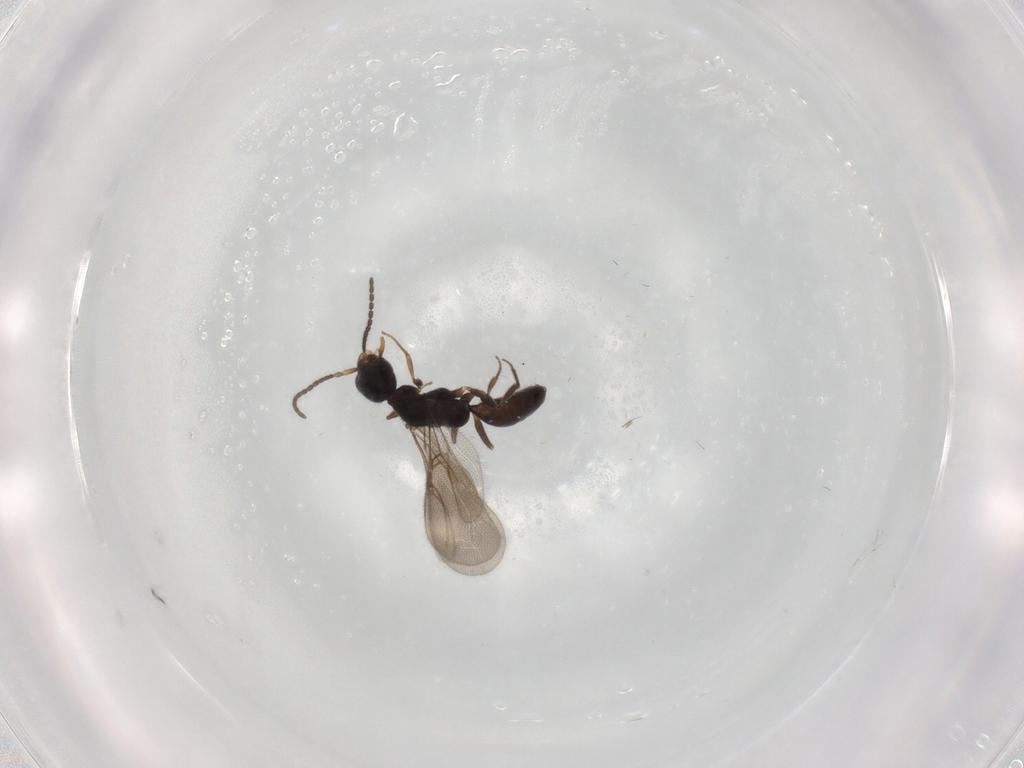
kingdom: Animalia
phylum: Arthropoda
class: Insecta
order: Hymenoptera
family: Bethylidae
